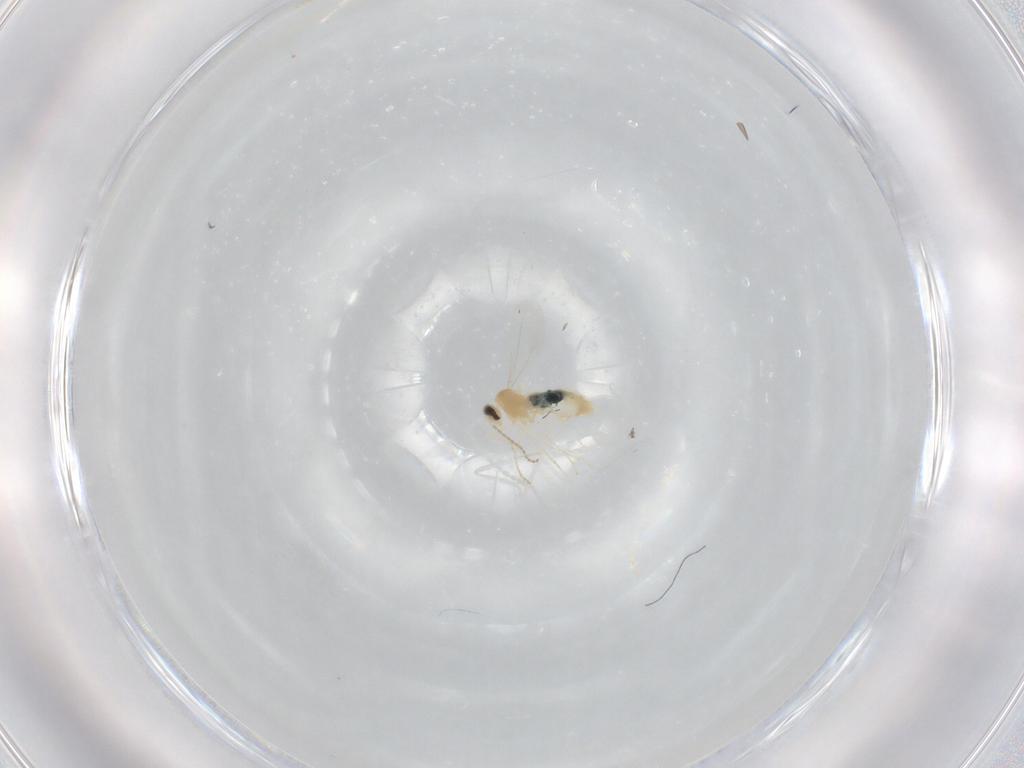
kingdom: Animalia
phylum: Arthropoda
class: Insecta
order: Diptera
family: Cecidomyiidae
